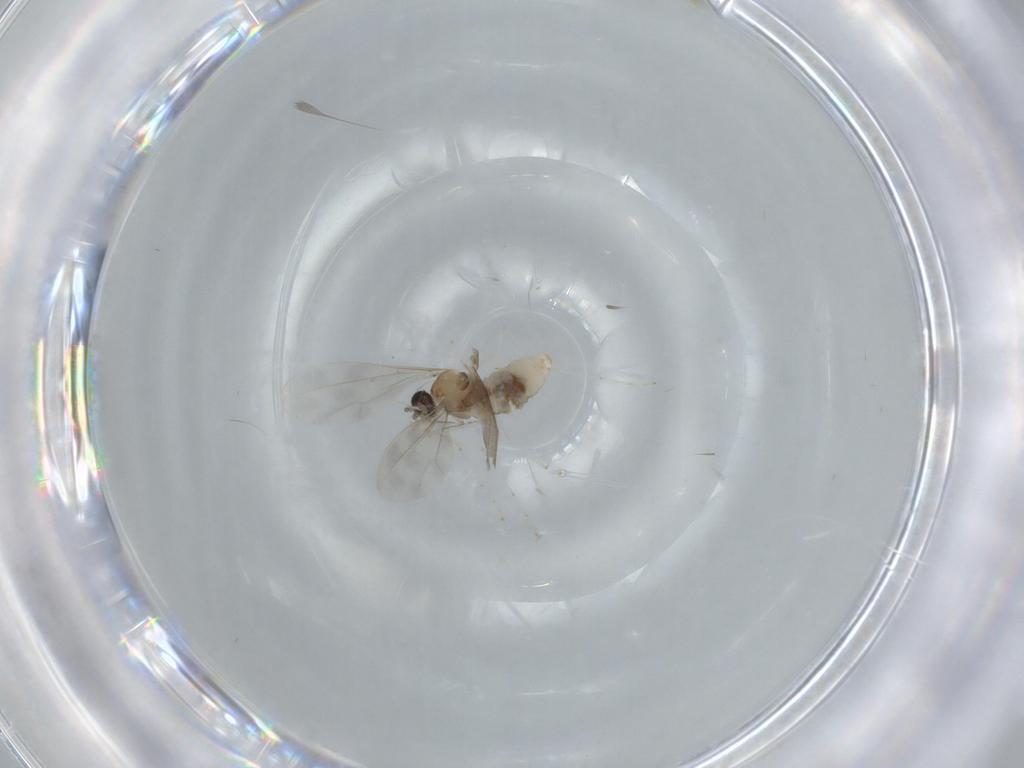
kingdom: Animalia
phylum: Arthropoda
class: Insecta
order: Diptera
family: Cecidomyiidae
